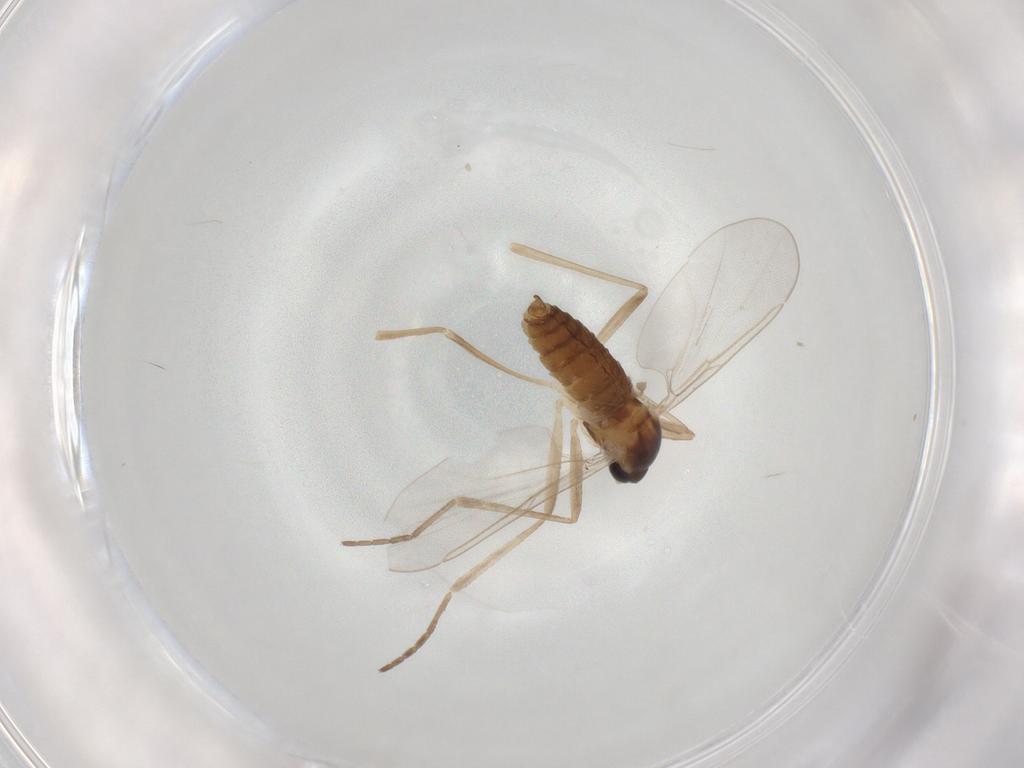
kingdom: Animalia
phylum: Arthropoda
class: Insecta
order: Diptera
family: Cecidomyiidae
